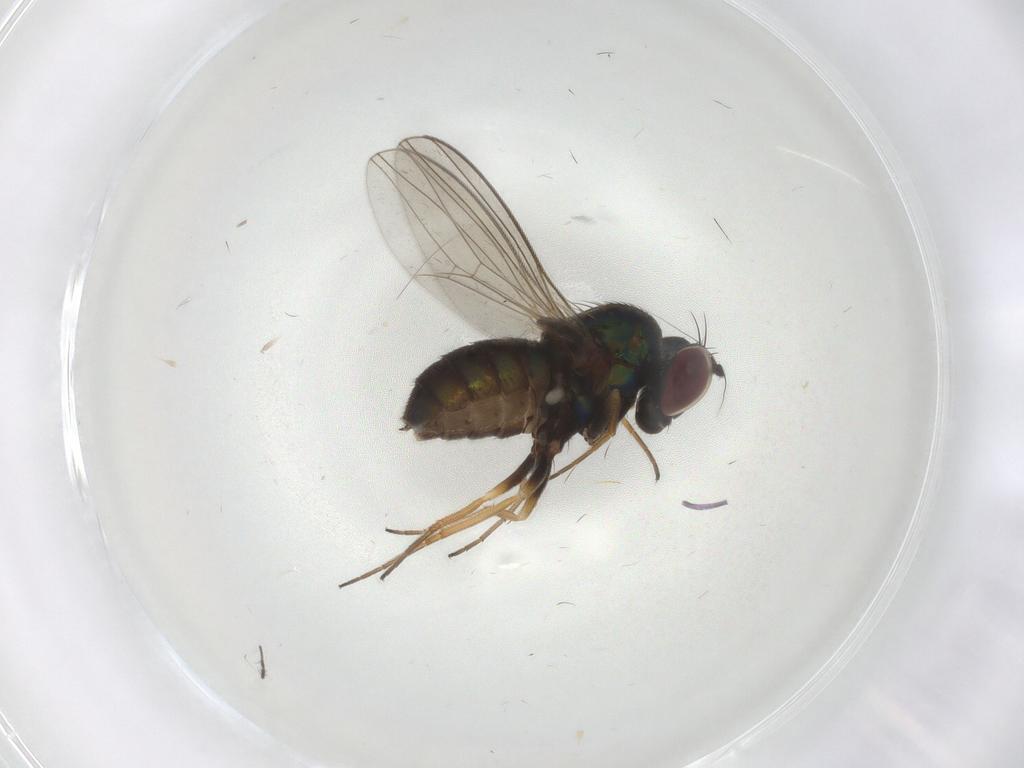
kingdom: Animalia
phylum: Arthropoda
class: Insecta
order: Diptera
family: Dolichopodidae
